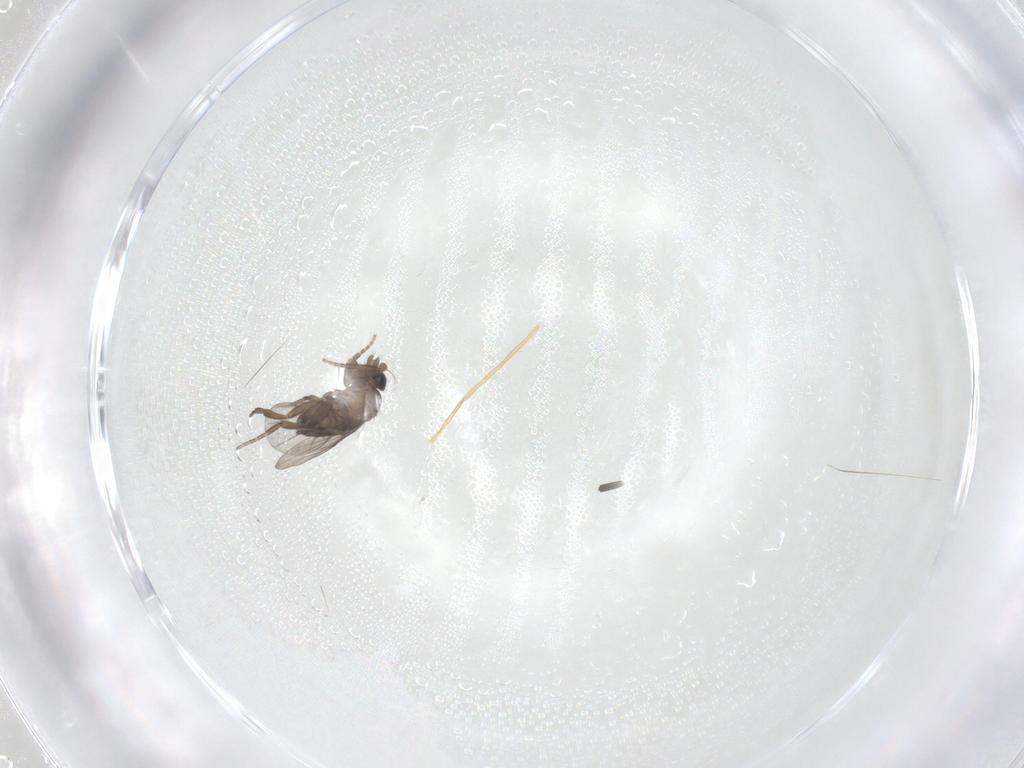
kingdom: Animalia
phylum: Arthropoda
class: Insecta
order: Diptera
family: Phoridae
